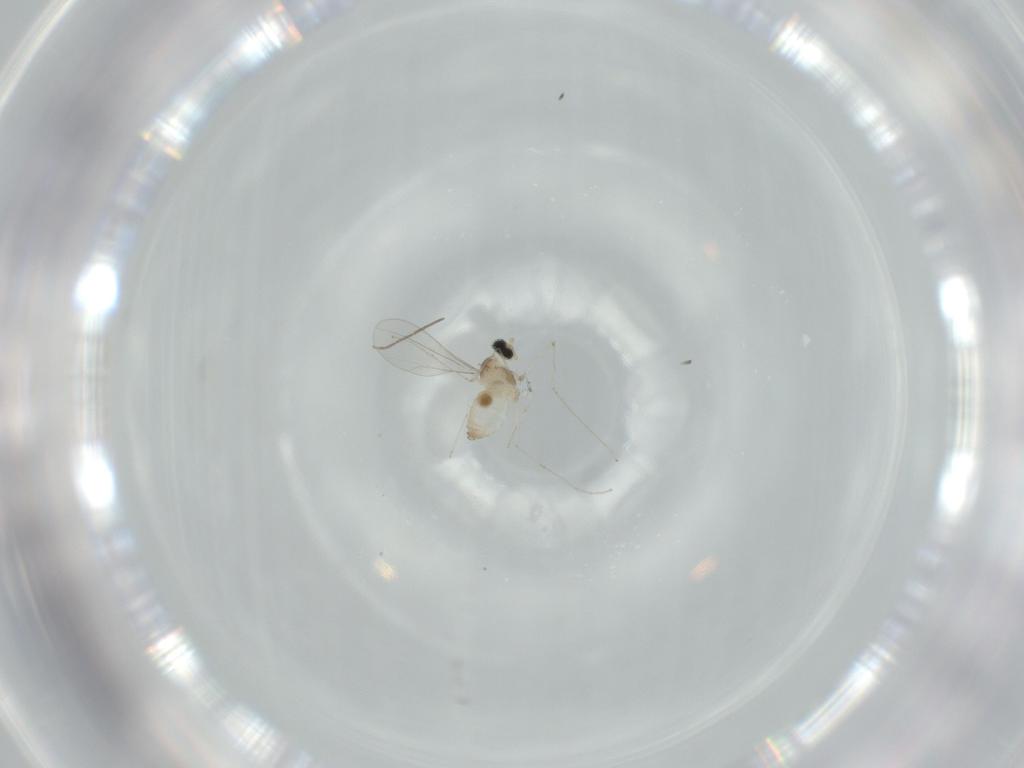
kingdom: Animalia
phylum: Arthropoda
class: Insecta
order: Diptera
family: Cecidomyiidae
